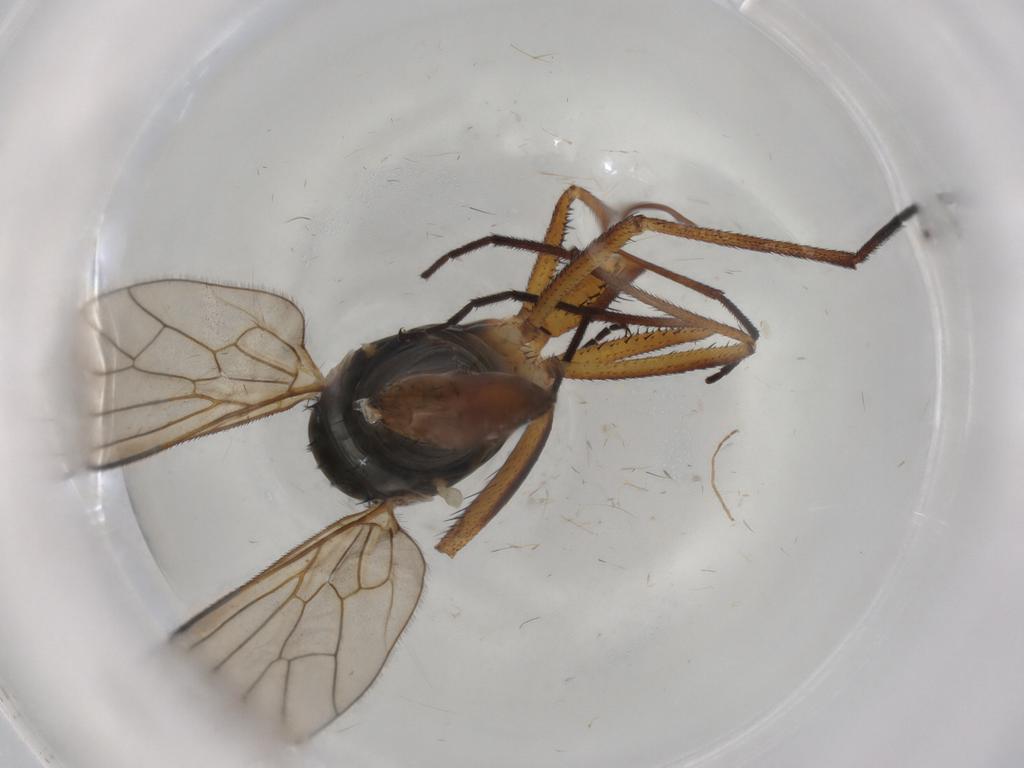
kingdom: Animalia
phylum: Arthropoda
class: Insecta
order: Diptera
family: Empididae
